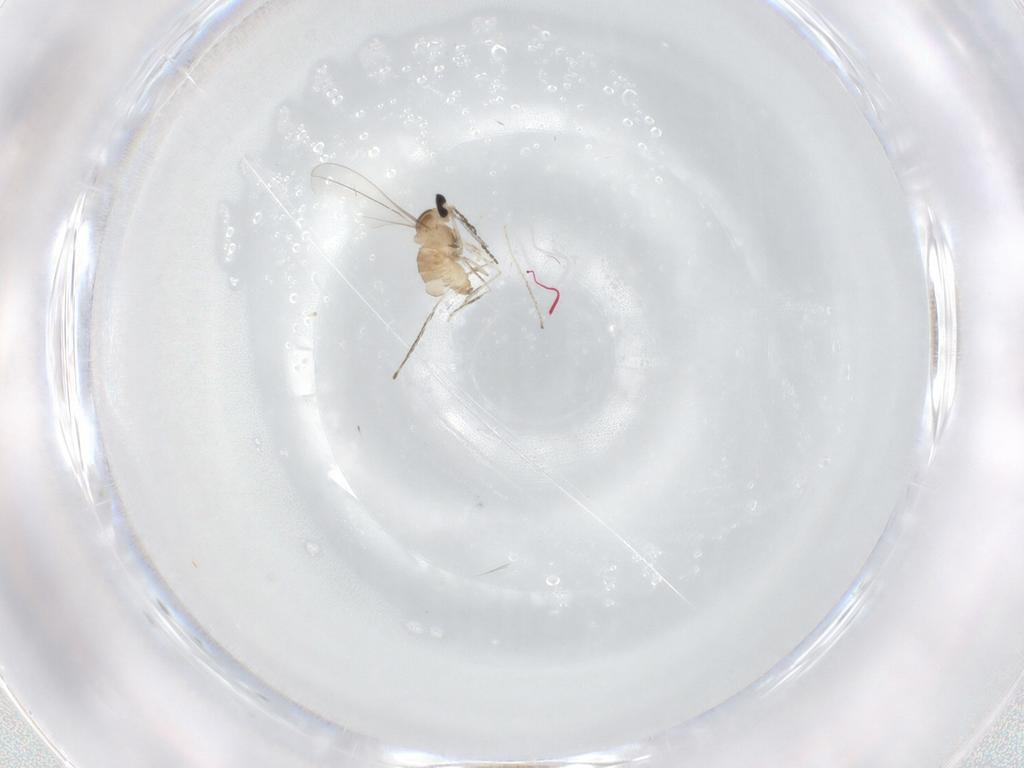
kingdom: Animalia
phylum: Arthropoda
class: Insecta
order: Diptera
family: Cecidomyiidae
